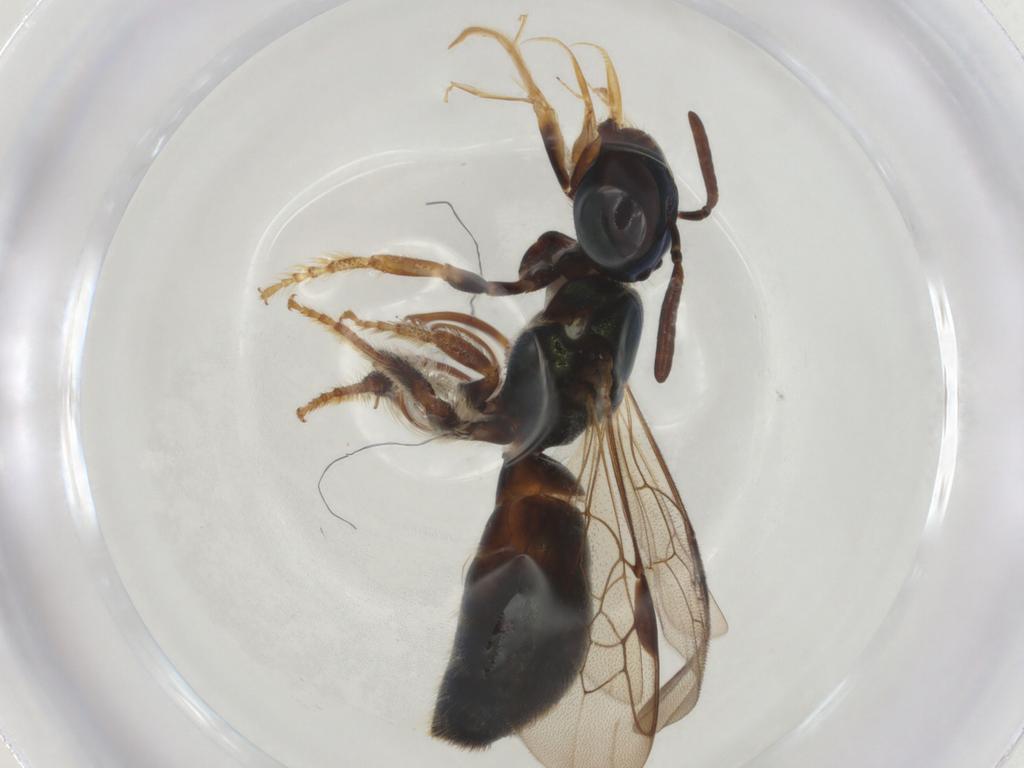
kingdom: Animalia
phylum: Arthropoda
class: Insecta
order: Hymenoptera
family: Apidae
